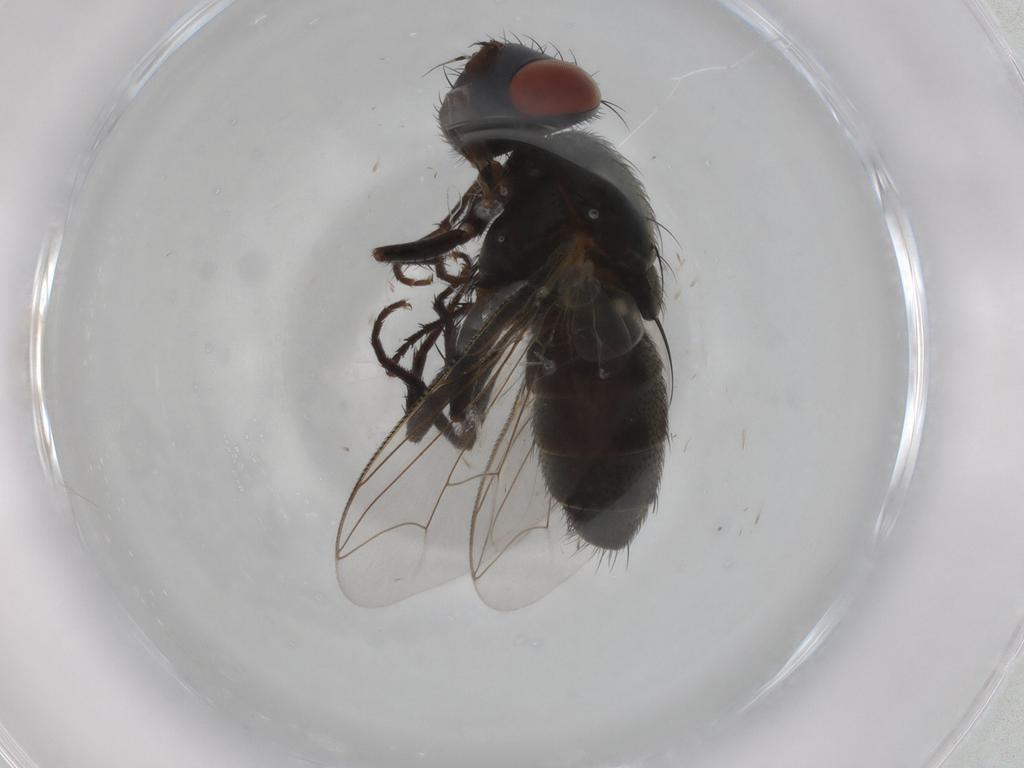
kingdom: Animalia
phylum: Arthropoda
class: Insecta
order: Diptera
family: Sarcophagidae
